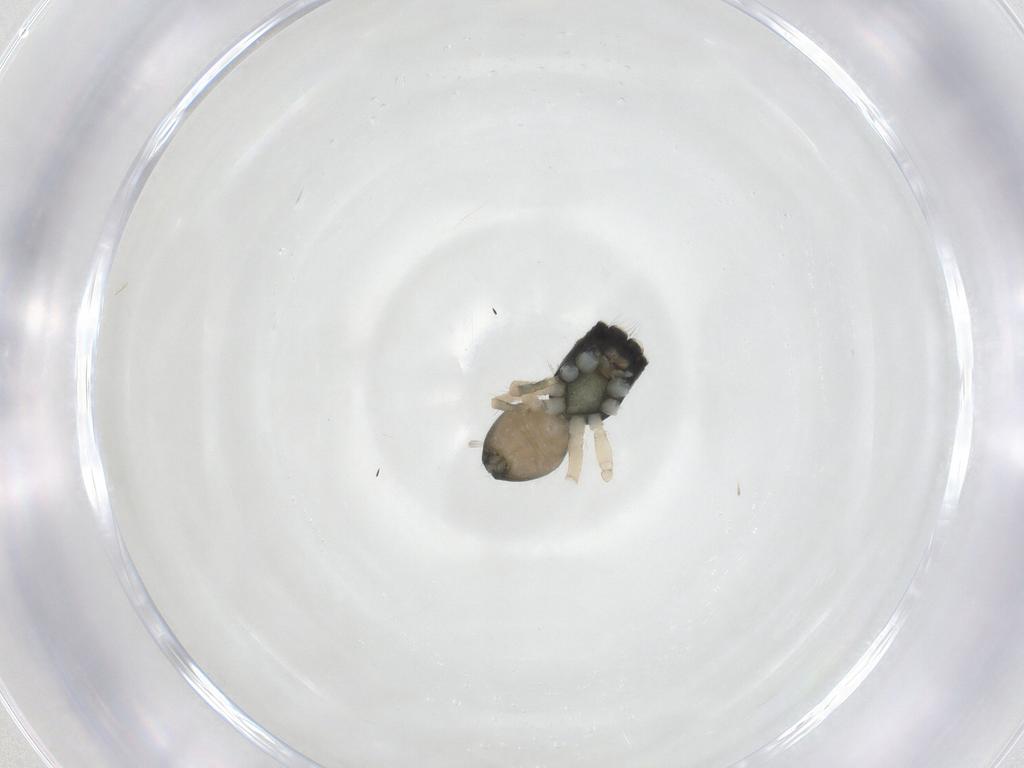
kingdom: Animalia
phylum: Arthropoda
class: Arachnida
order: Araneae
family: Salticidae
